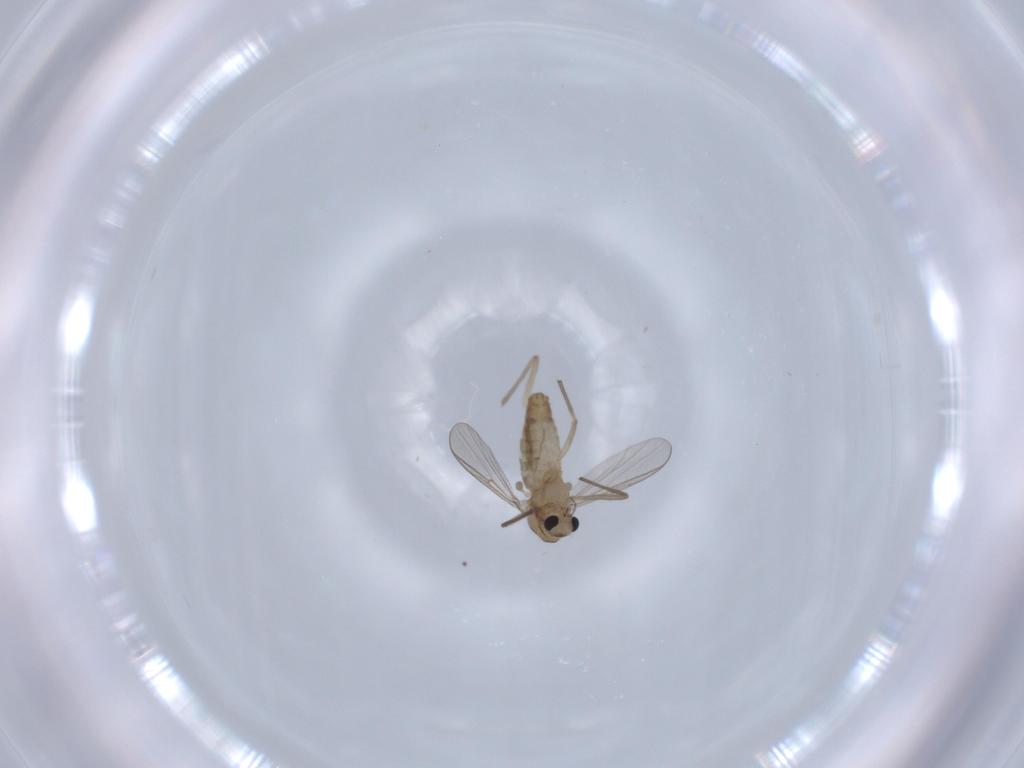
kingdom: Animalia
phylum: Arthropoda
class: Insecta
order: Diptera
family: Chironomidae
